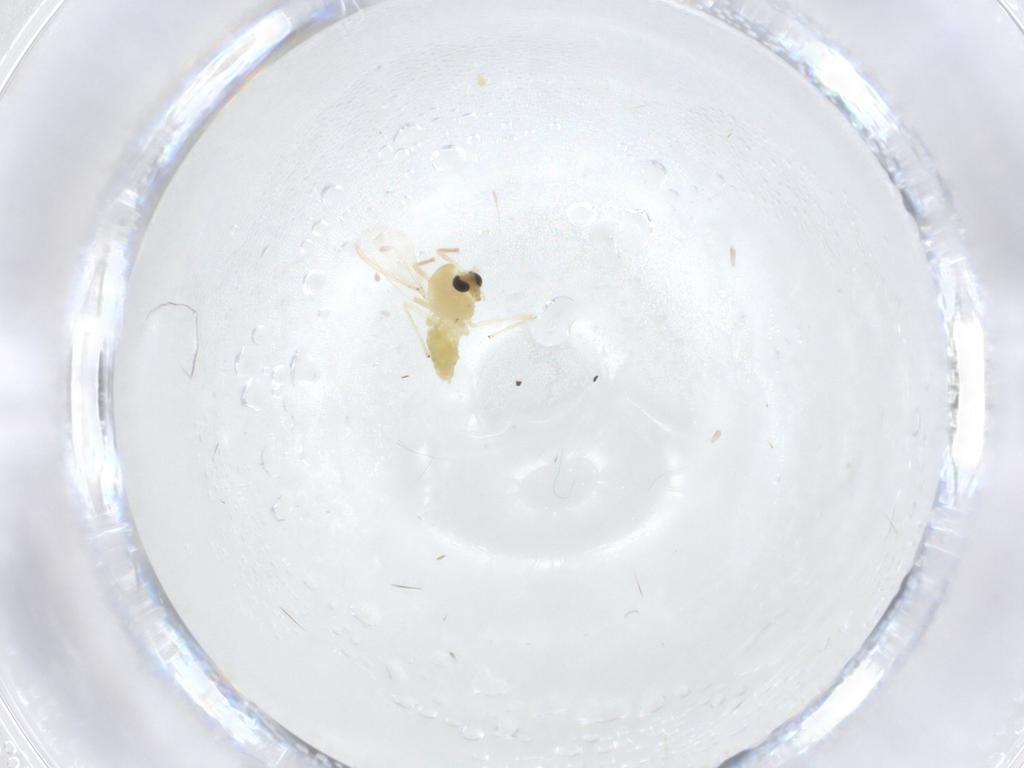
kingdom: Animalia
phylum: Arthropoda
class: Insecta
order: Diptera
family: Chironomidae
